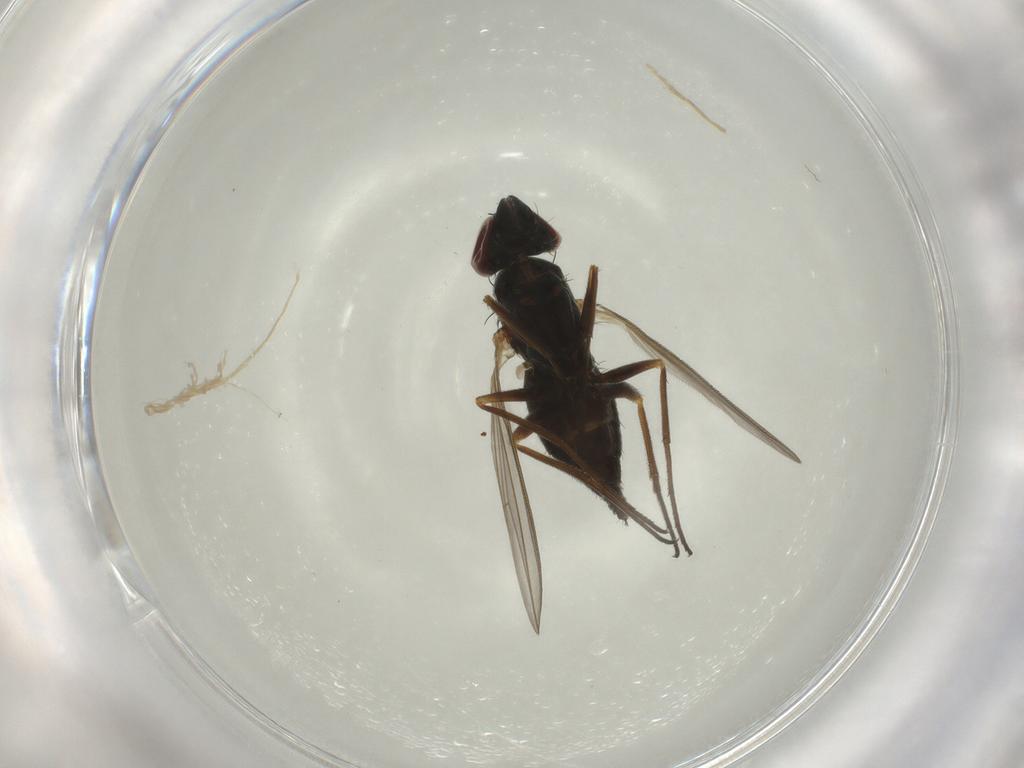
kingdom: Animalia
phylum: Arthropoda
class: Insecta
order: Diptera
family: Dolichopodidae
